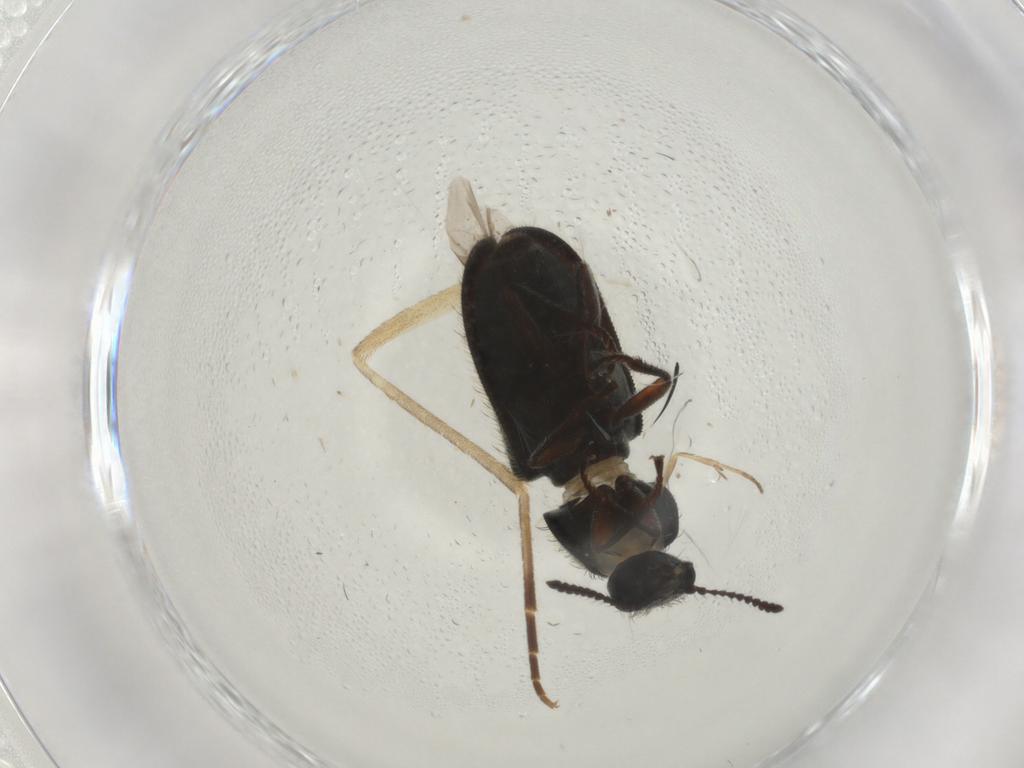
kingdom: Animalia
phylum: Arthropoda
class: Insecta
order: Coleoptera
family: Melyridae
